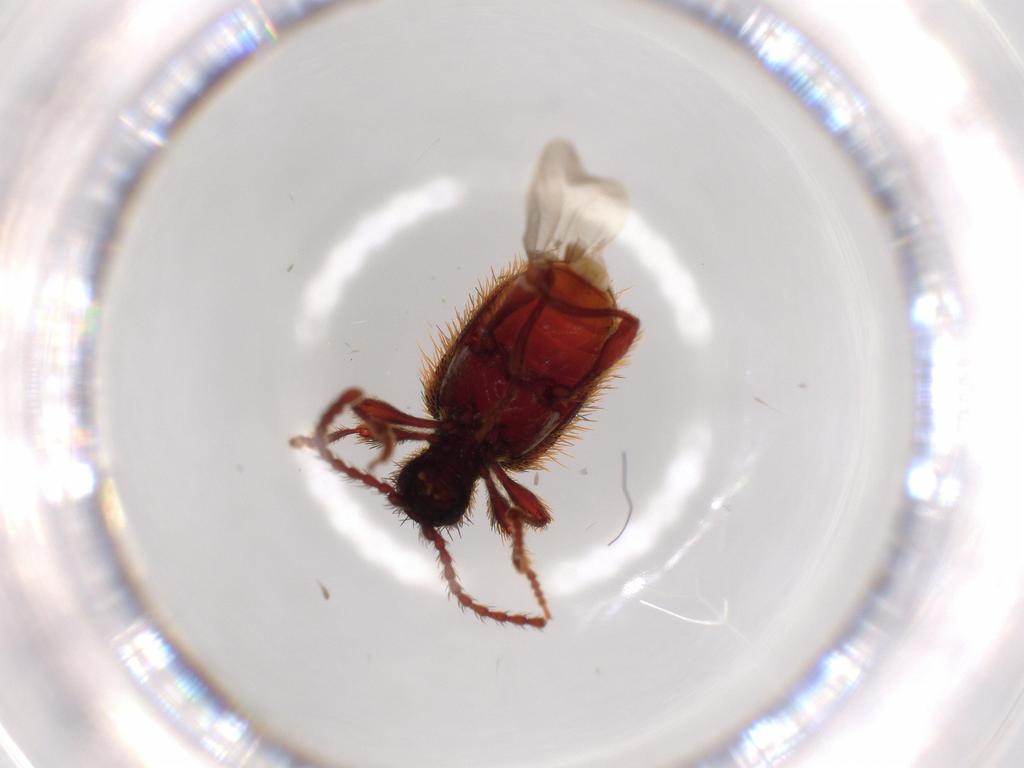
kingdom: Animalia
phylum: Arthropoda
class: Insecta
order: Coleoptera
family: Ptinidae
